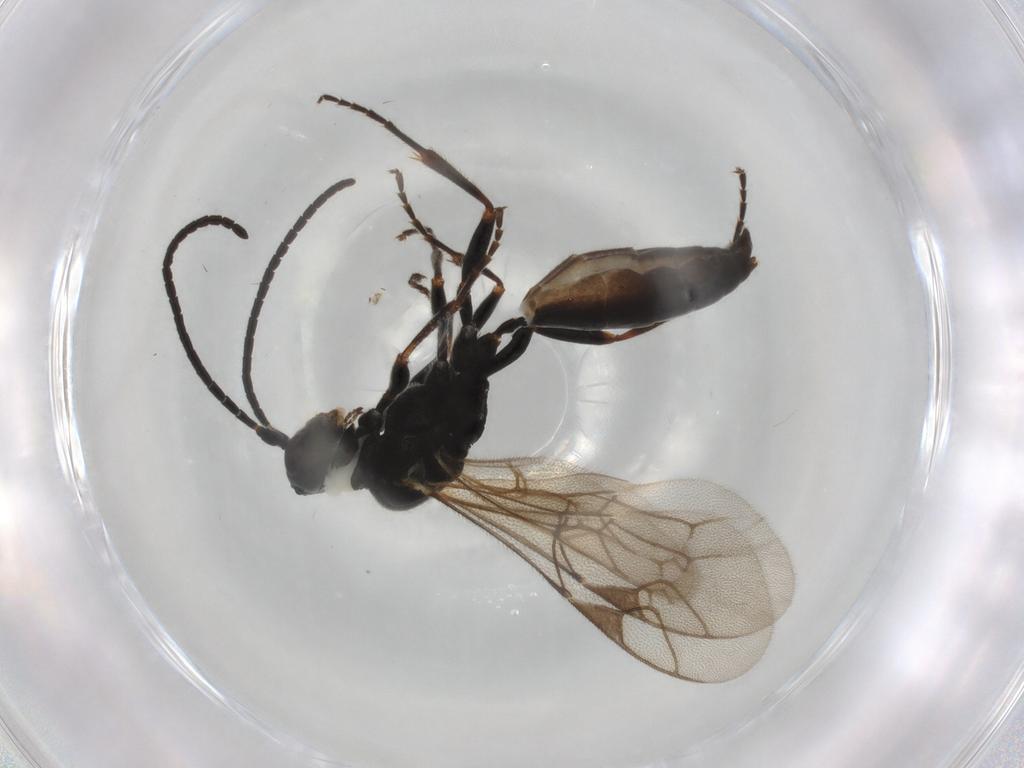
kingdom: Animalia
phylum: Arthropoda
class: Insecta
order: Hymenoptera
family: Ichneumonidae
